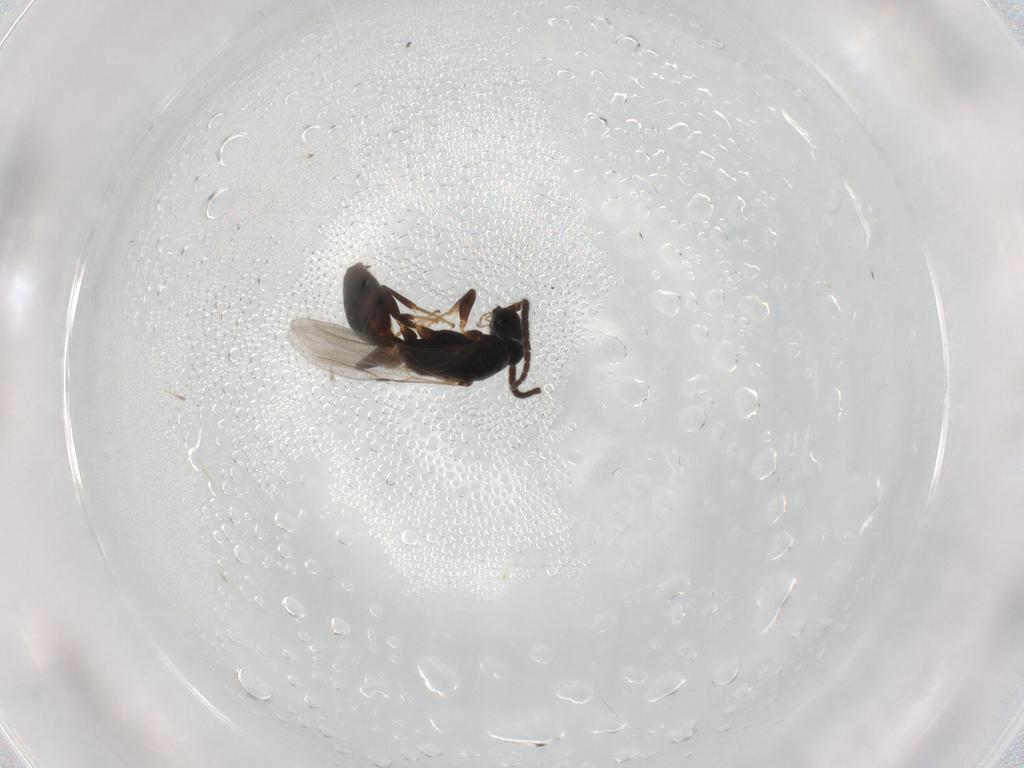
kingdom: Animalia
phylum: Arthropoda
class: Insecta
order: Hymenoptera
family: Bethylidae
